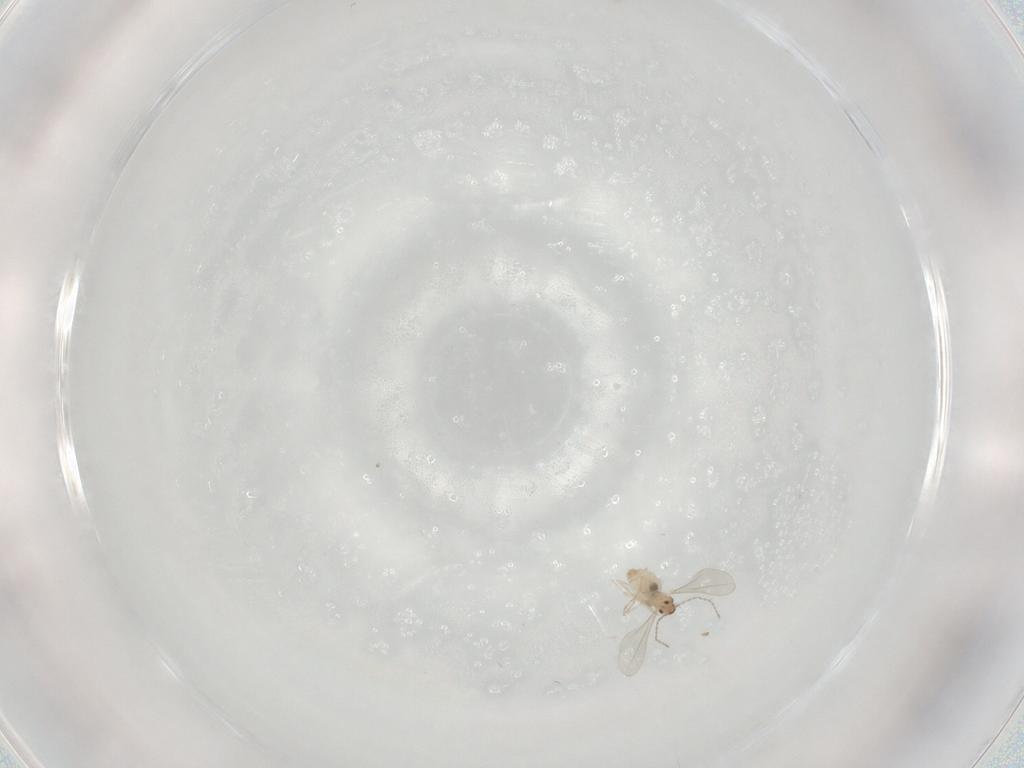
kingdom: Animalia
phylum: Arthropoda
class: Insecta
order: Diptera
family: Cecidomyiidae
